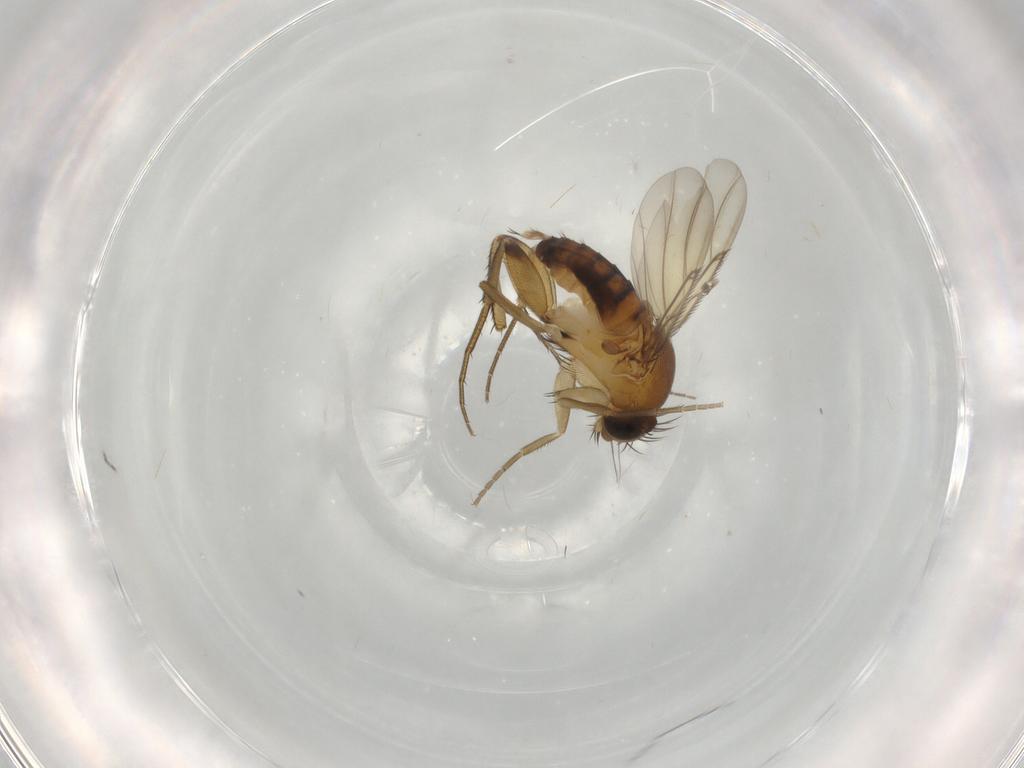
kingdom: Animalia
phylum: Arthropoda
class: Insecta
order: Diptera
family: Phoridae
